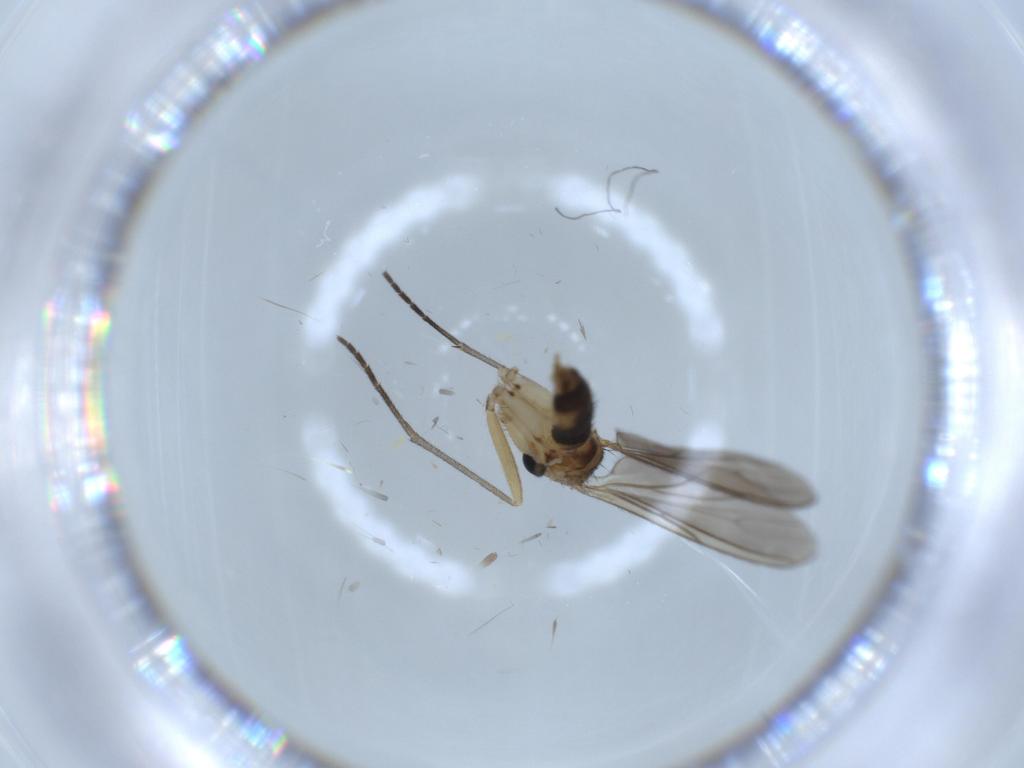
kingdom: Animalia
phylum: Arthropoda
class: Insecta
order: Diptera
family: Sciaridae
